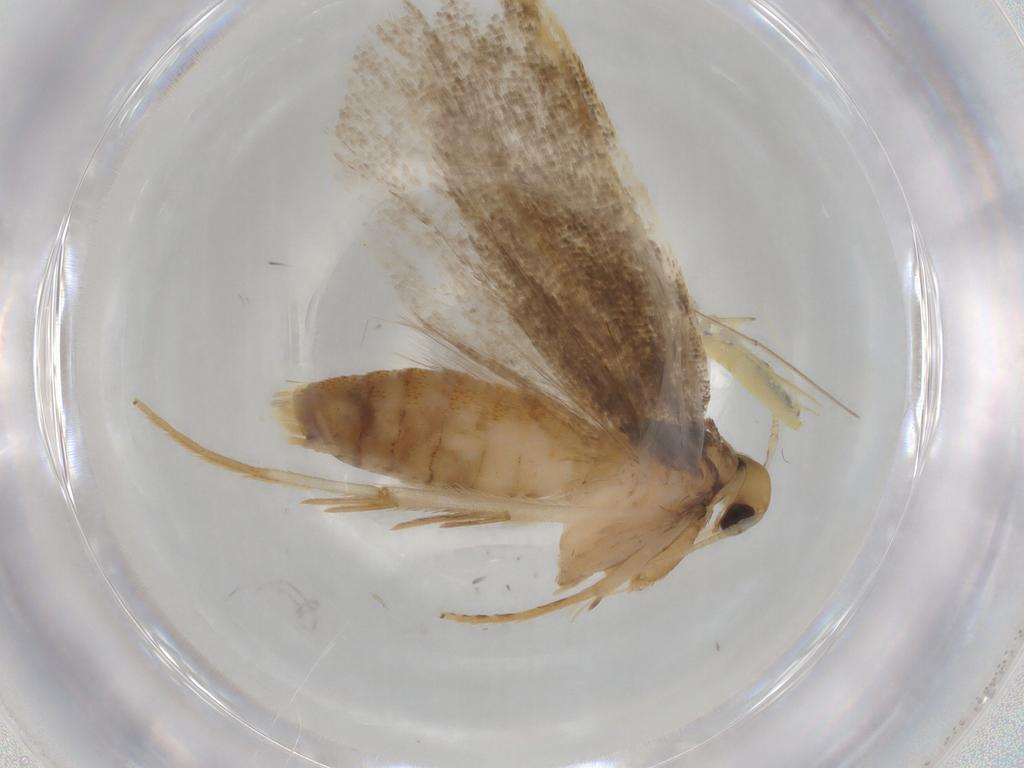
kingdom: Animalia
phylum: Arthropoda
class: Insecta
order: Lepidoptera
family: Lecithoceridae
